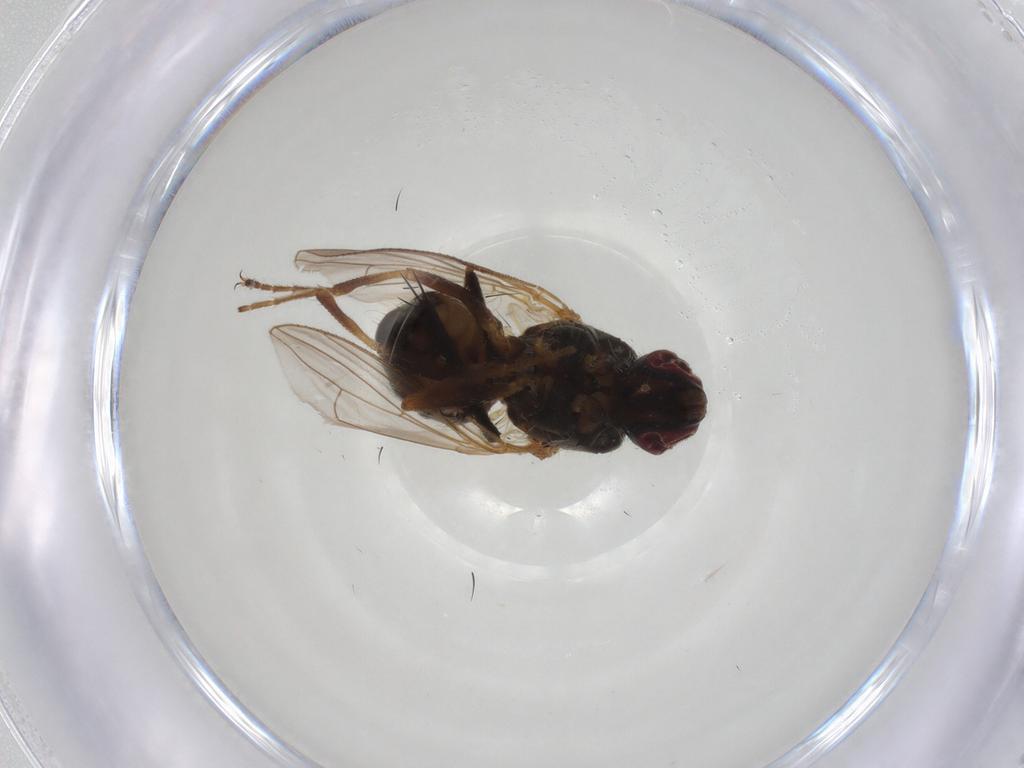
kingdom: Animalia
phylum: Arthropoda
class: Insecta
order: Diptera
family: Muscidae
